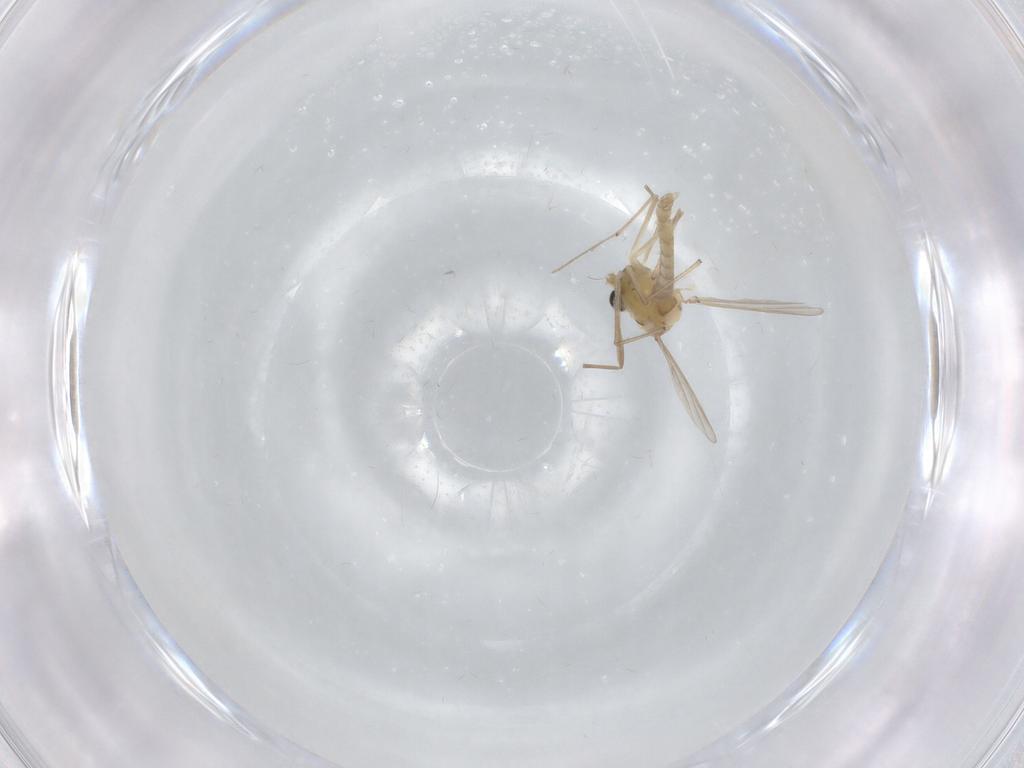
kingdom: Animalia
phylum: Arthropoda
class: Insecta
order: Diptera
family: Chironomidae
